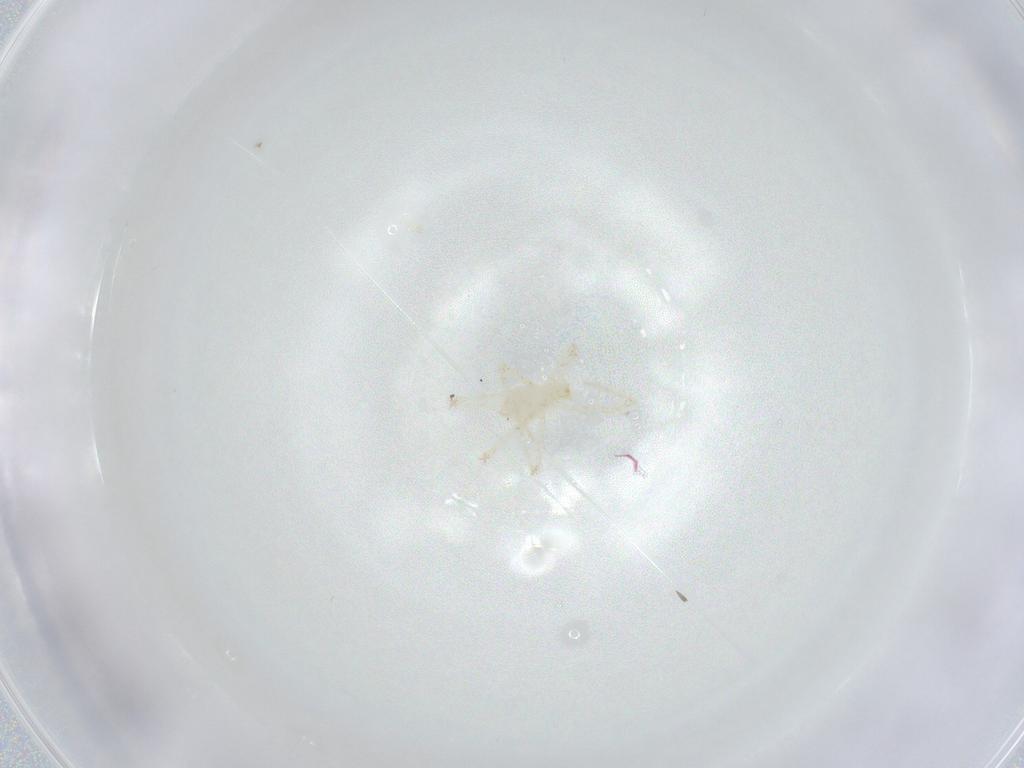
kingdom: Animalia
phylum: Arthropoda
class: Arachnida
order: Trombidiformes
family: Erythraeidae
